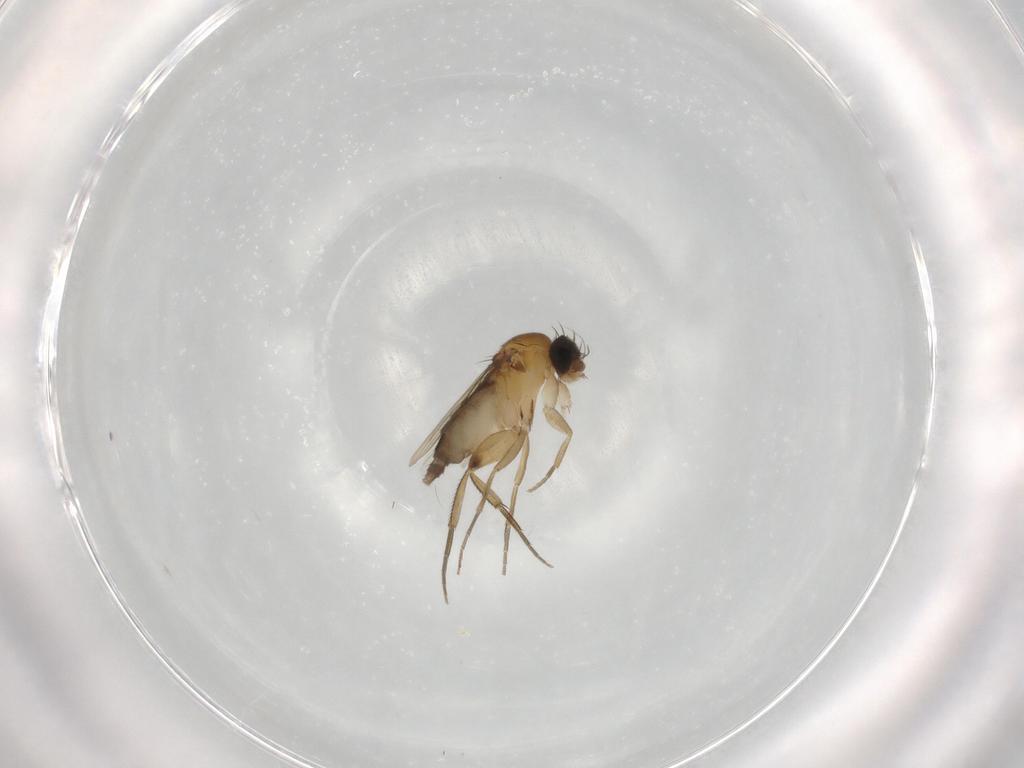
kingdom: Animalia
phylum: Arthropoda
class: Insecta
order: Diptera
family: Phoridae
